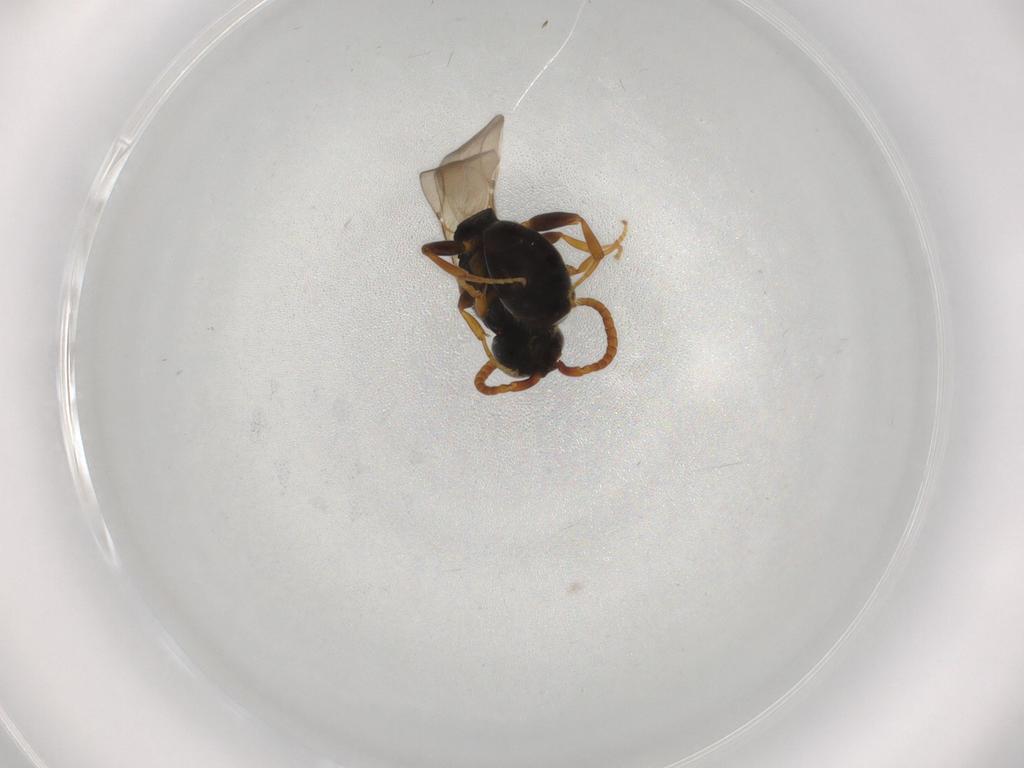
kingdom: Animalia
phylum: Arthropoda
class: Insecta
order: Hymenoptera
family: Bethylidae
